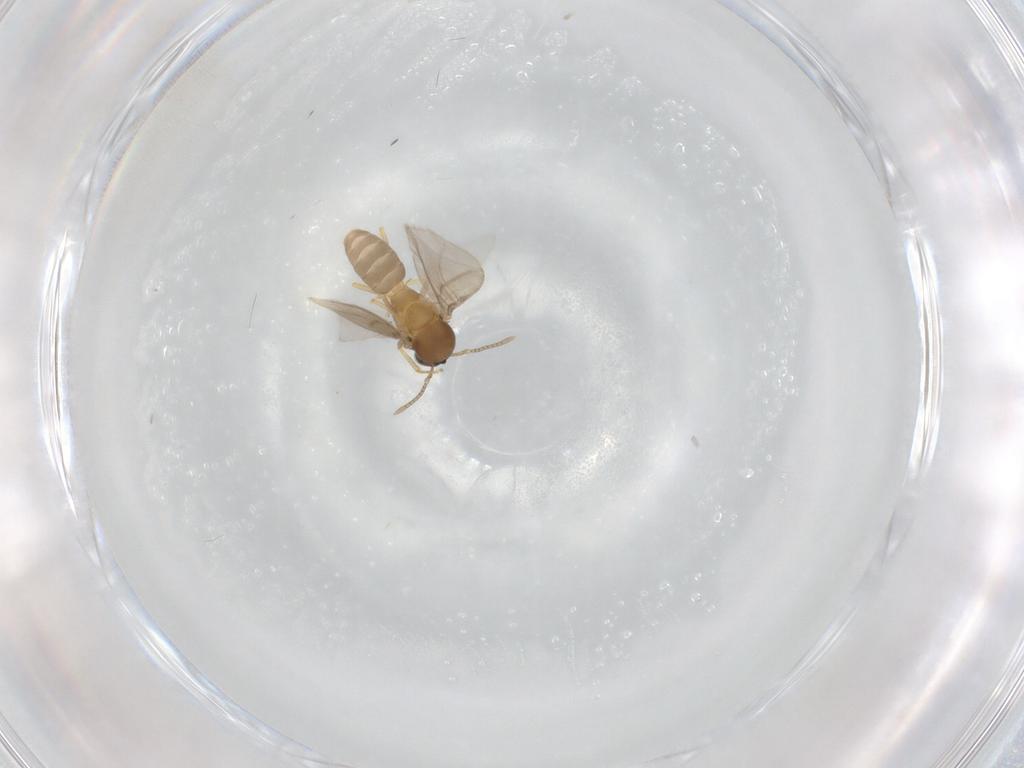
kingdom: Animalia
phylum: Arthropoda
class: Insecta
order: Hymenoptera
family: Formicidae
